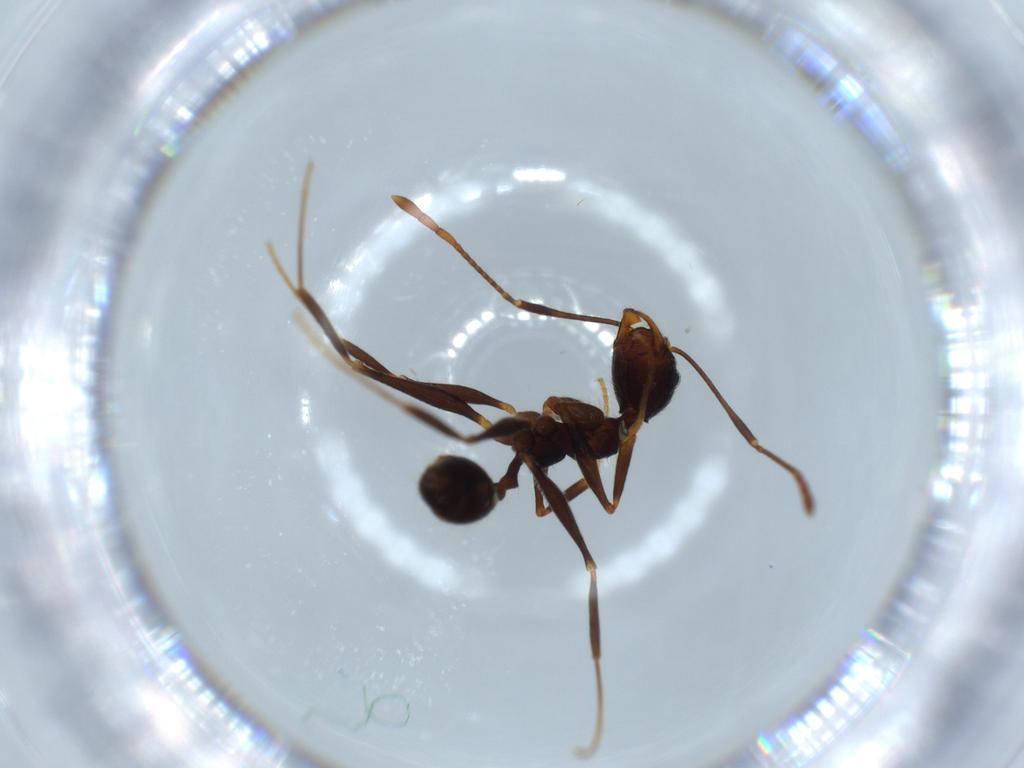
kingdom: Animalia
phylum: Arthropoda
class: Insecta
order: Hymenoptera
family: Formicidae
